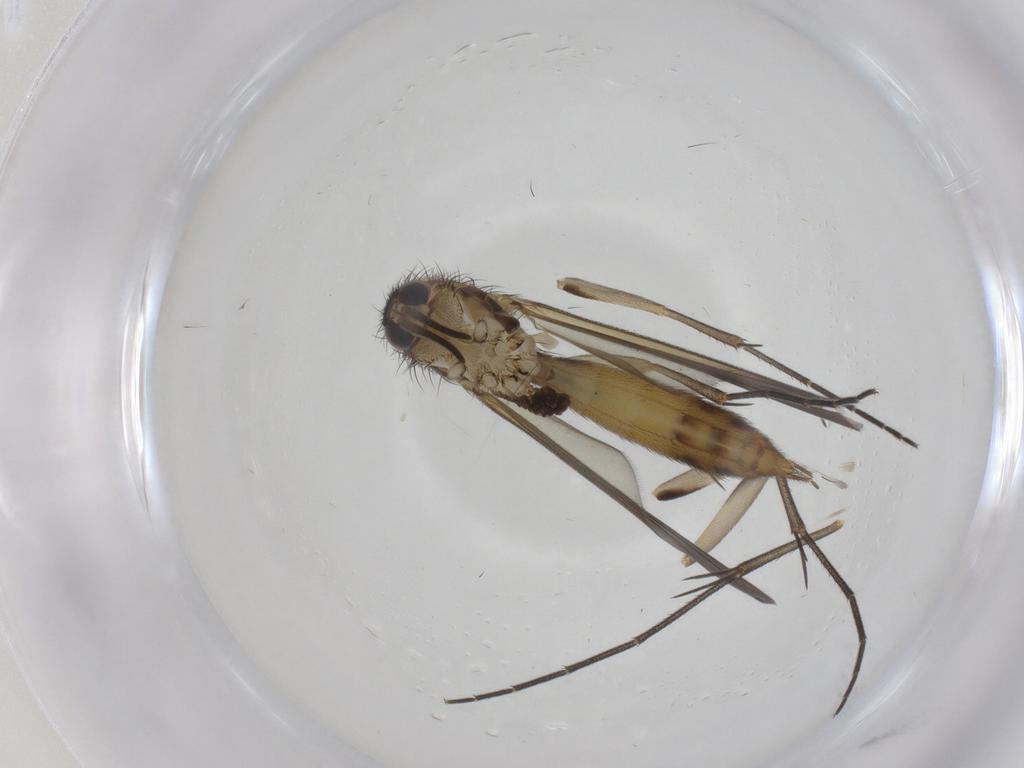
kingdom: Animalia
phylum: Arthropoda
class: Insecta
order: Diptera
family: Sciaridae
